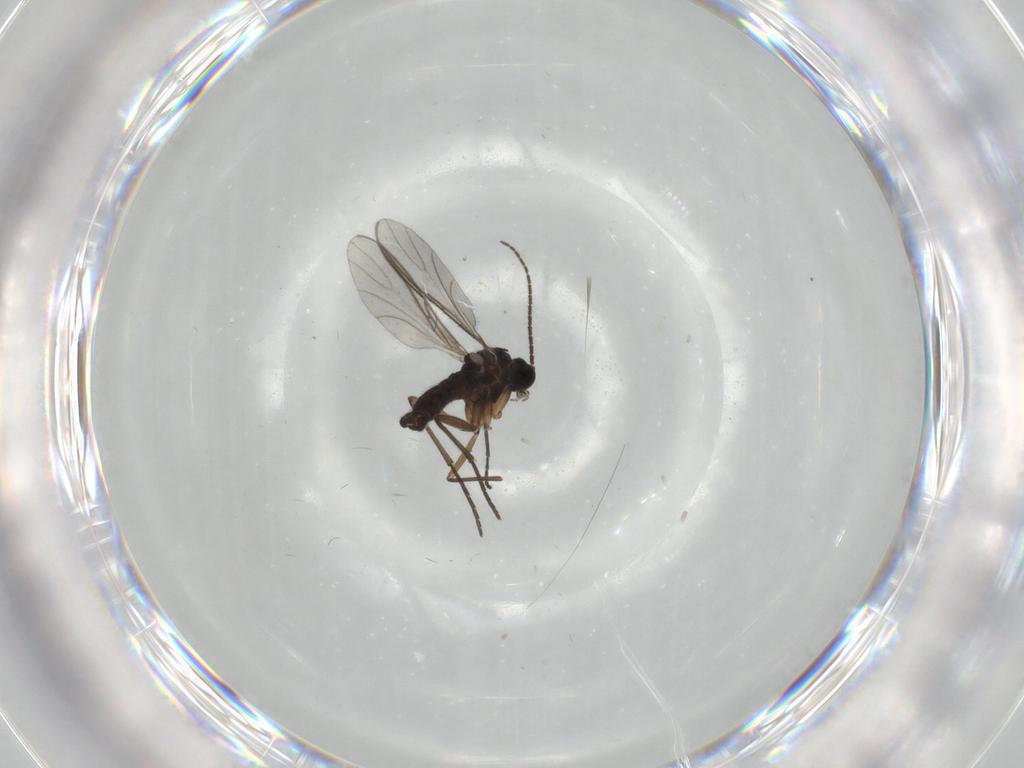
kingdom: Animalia
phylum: Arthropoda
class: Insecta
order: Diptera
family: Sciaridae
